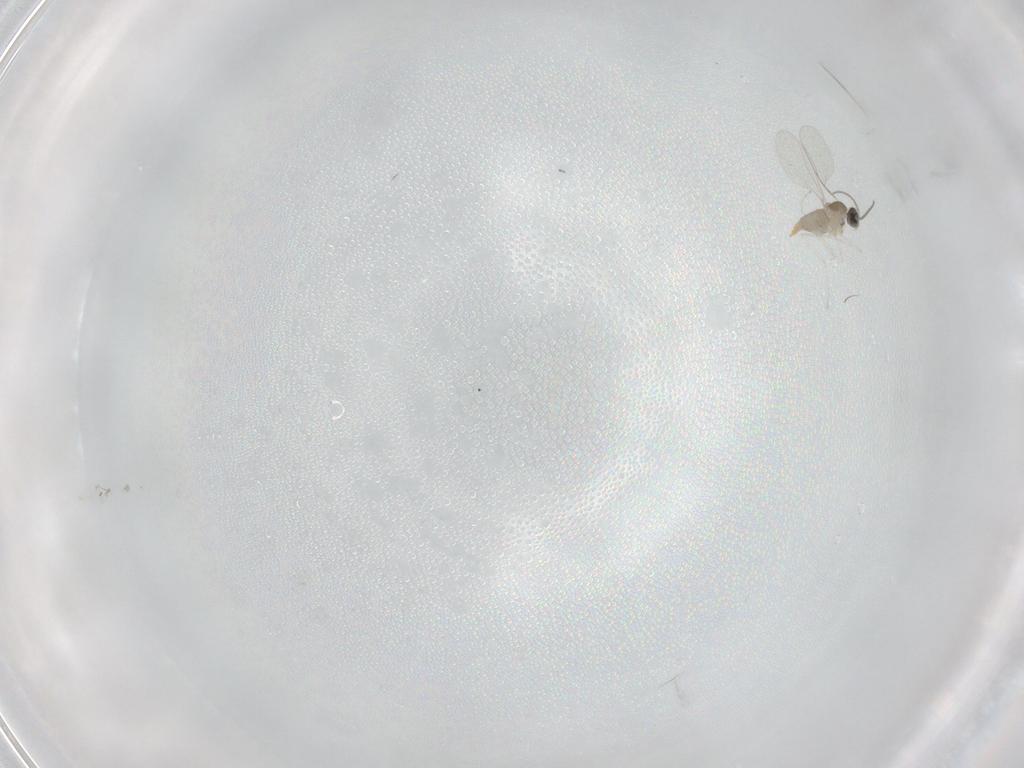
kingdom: Animalia
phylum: Arthropoda
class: Insecta
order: Diptera
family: Cecidomyiidae
